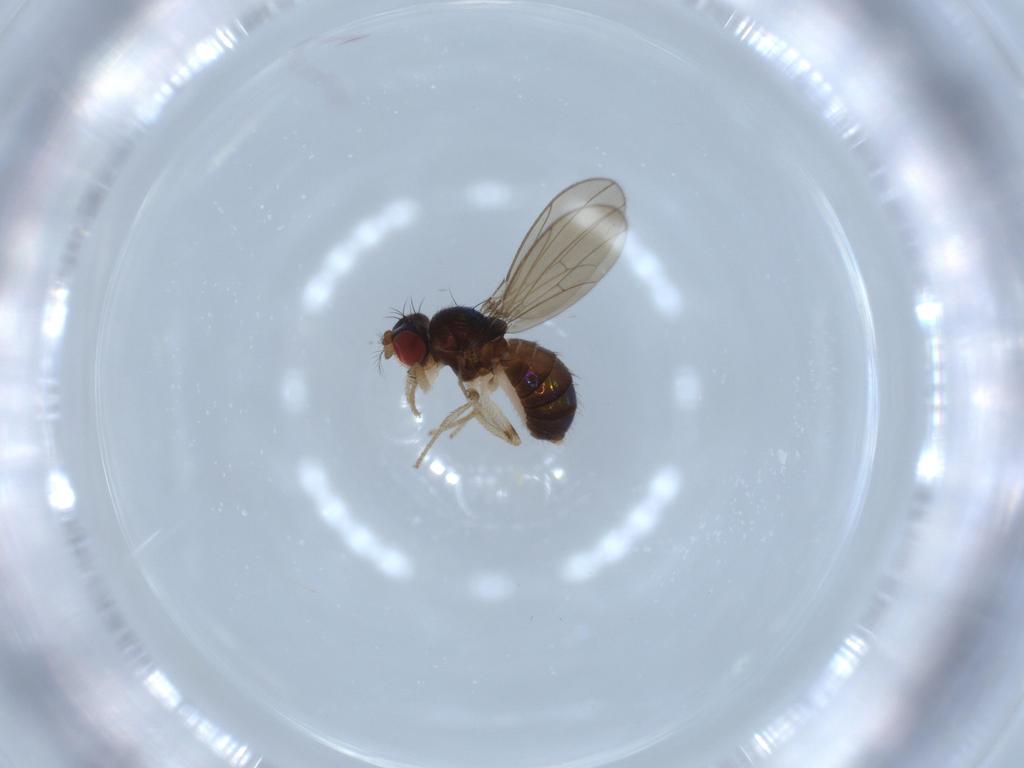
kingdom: Animalia
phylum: Arthropoda
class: Insecta
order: Diptera
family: Drosophilidae
